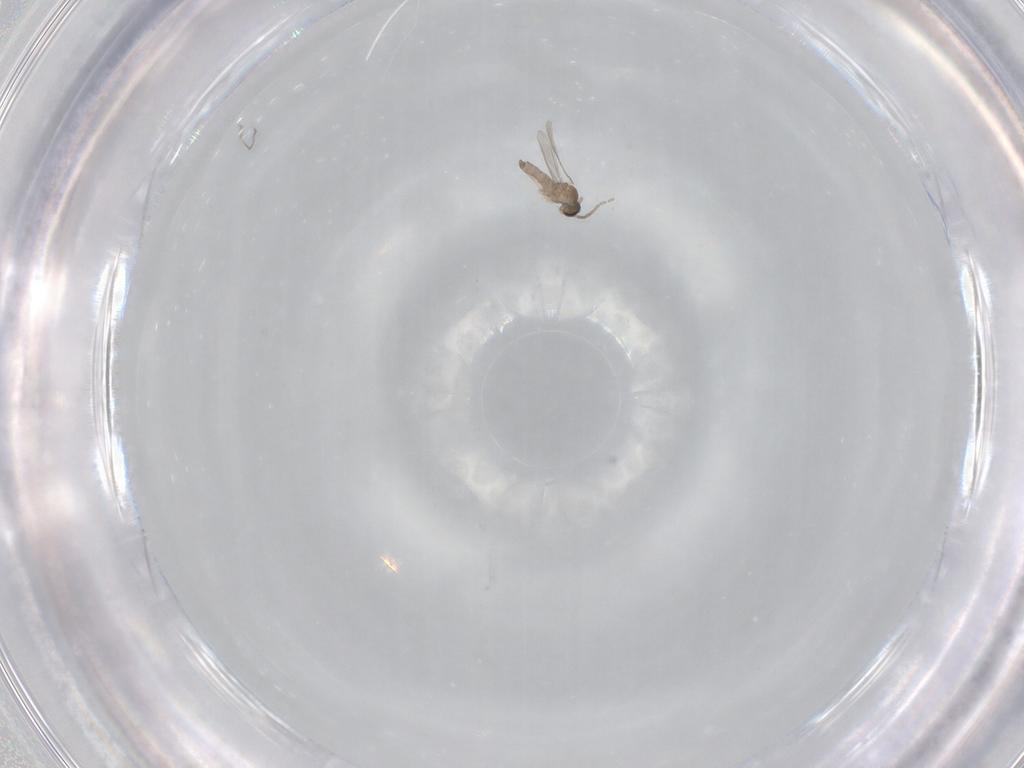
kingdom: Animalia
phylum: Arthropoda
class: Insecta
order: Diptera
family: Cecidomyiidae
